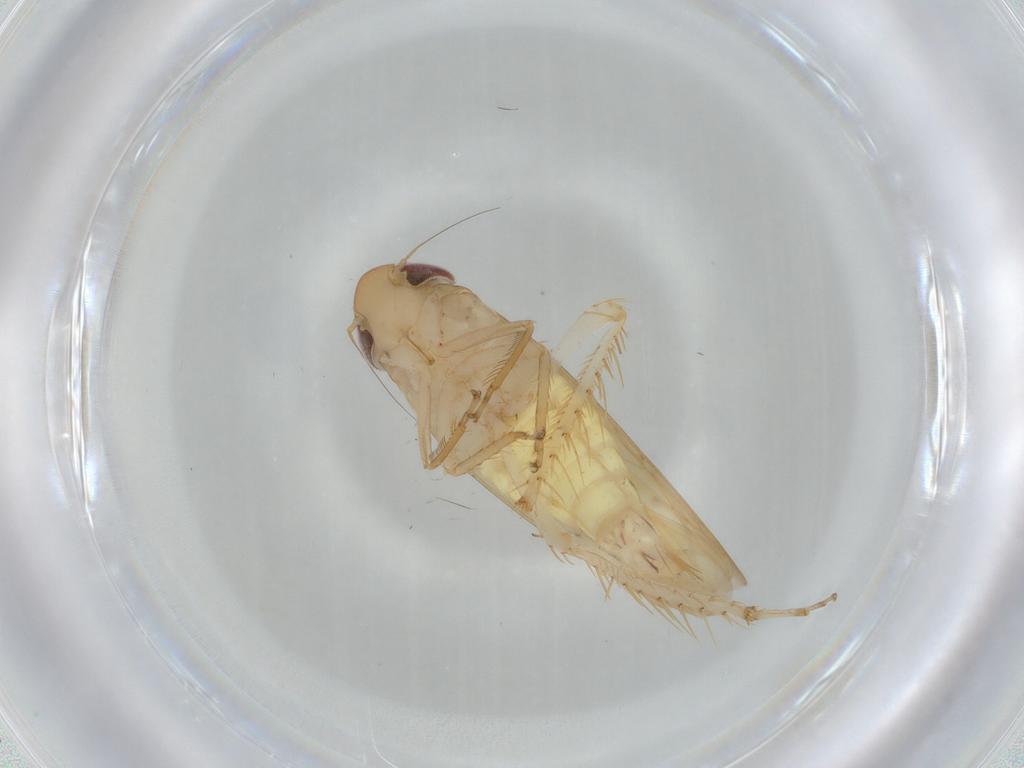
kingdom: Animalia
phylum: Arthropoda
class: Insecta
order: Hemiptera
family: Cicadellidae
